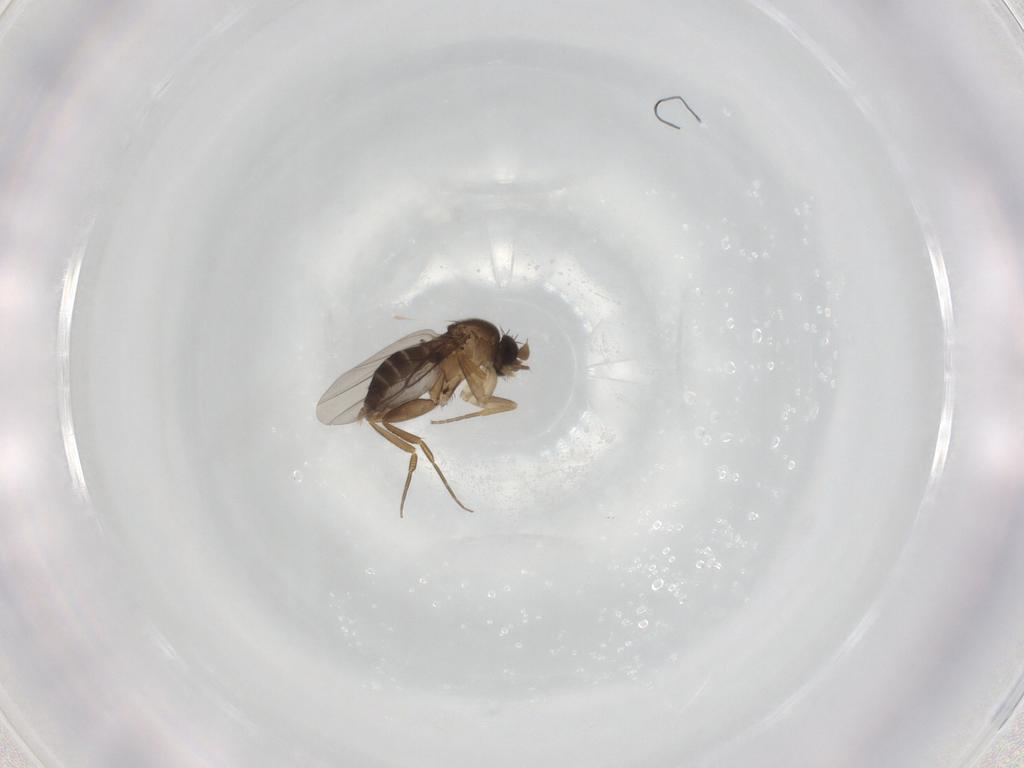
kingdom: Animalia
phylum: Arthropoda
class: Insecta
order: Diptera
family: Phoridae
